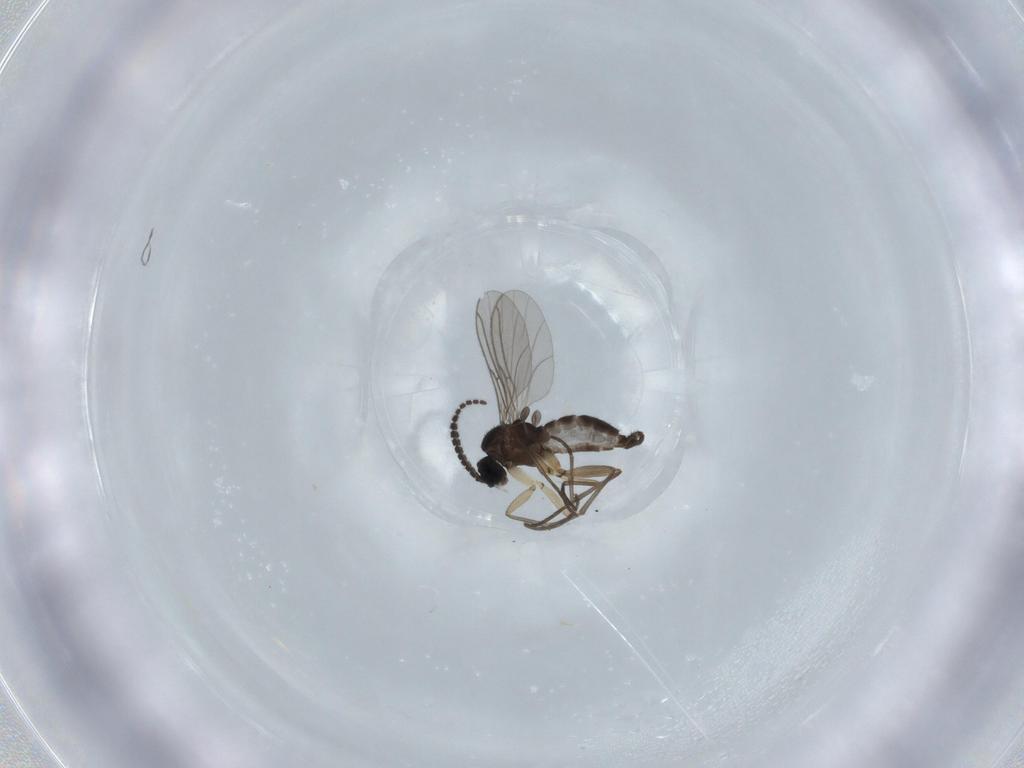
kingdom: Animalia
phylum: Arthropoda
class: Insecta
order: Diptera
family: Sciaridae
